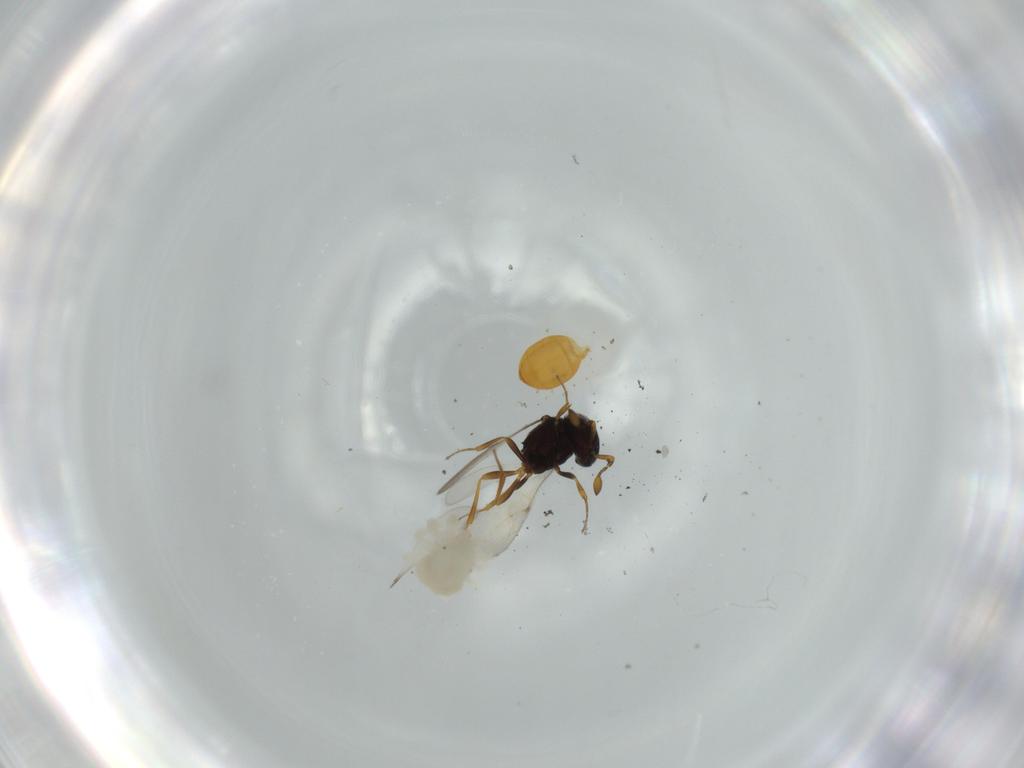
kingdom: Animalia
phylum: Arthropoda
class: Insecta
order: Hymenoptera
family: Scelionidae
